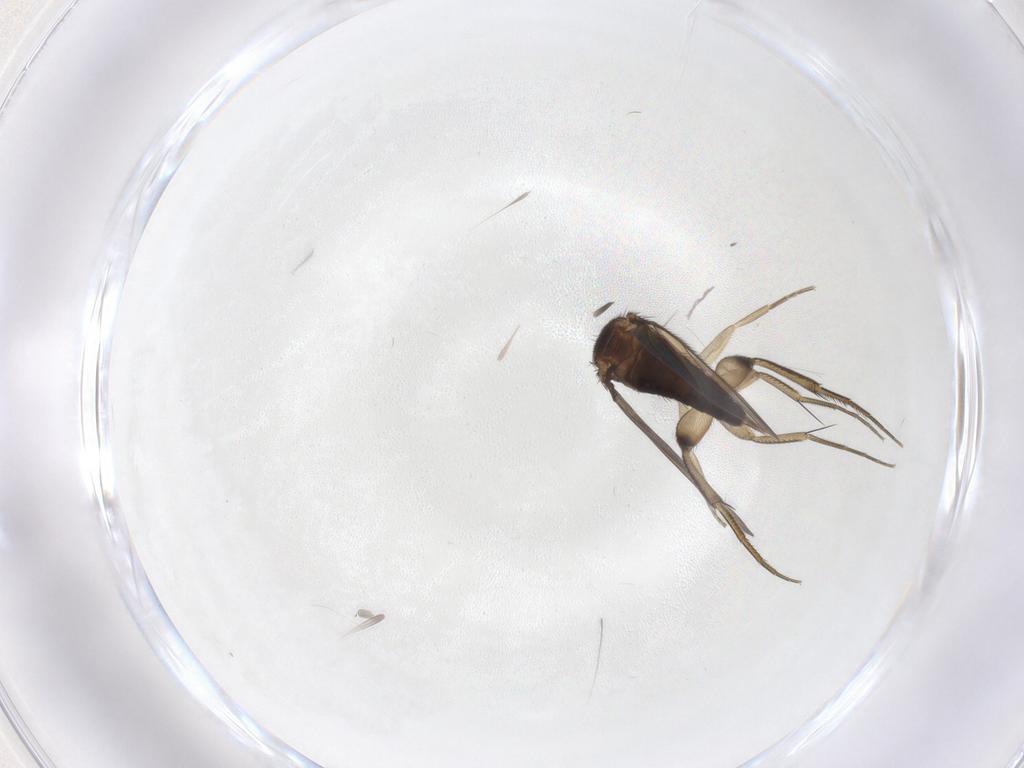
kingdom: Animalia
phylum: Arthropoda
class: Insecta
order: Diptera
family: Phoridae
